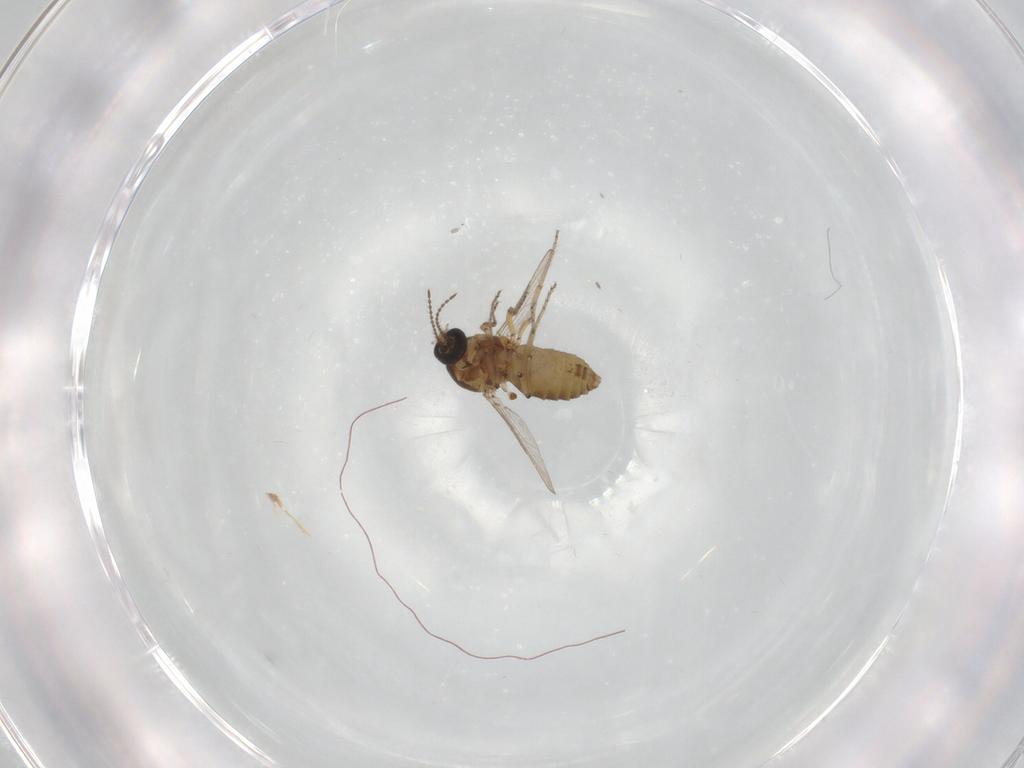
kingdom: Animalia
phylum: Arthropoda
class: Insecta
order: Diptera
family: Ceratopogonidae
